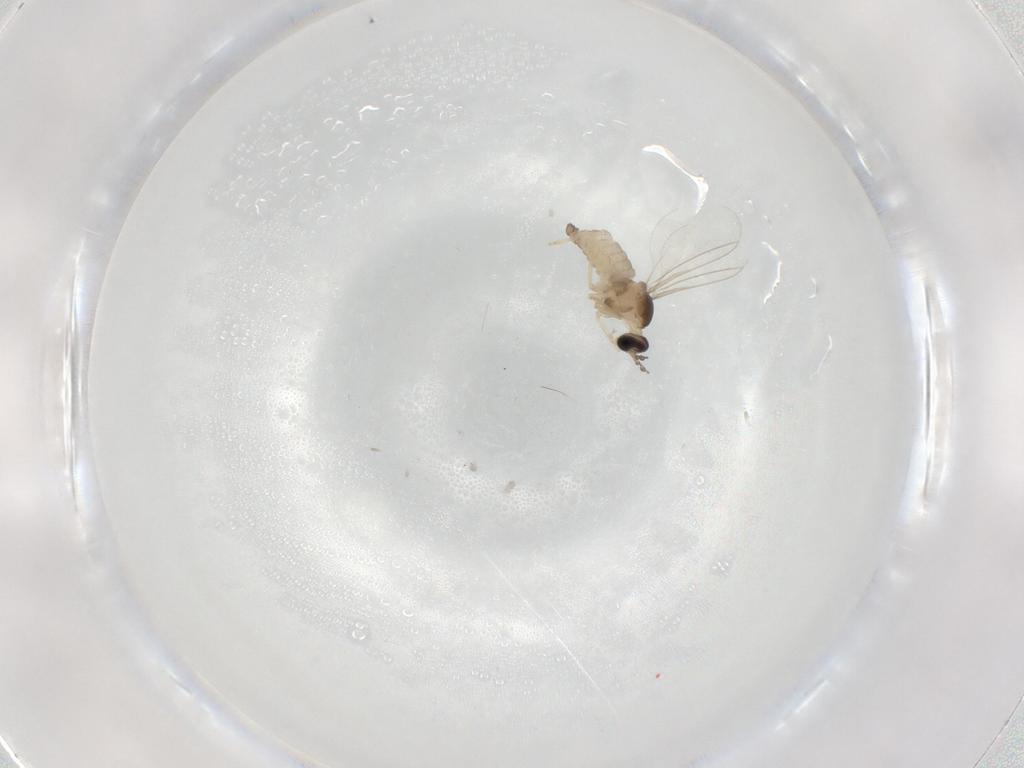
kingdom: Animalia
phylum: Arthropoda
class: Insecta
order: Diptera
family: Cecidomyiidae
